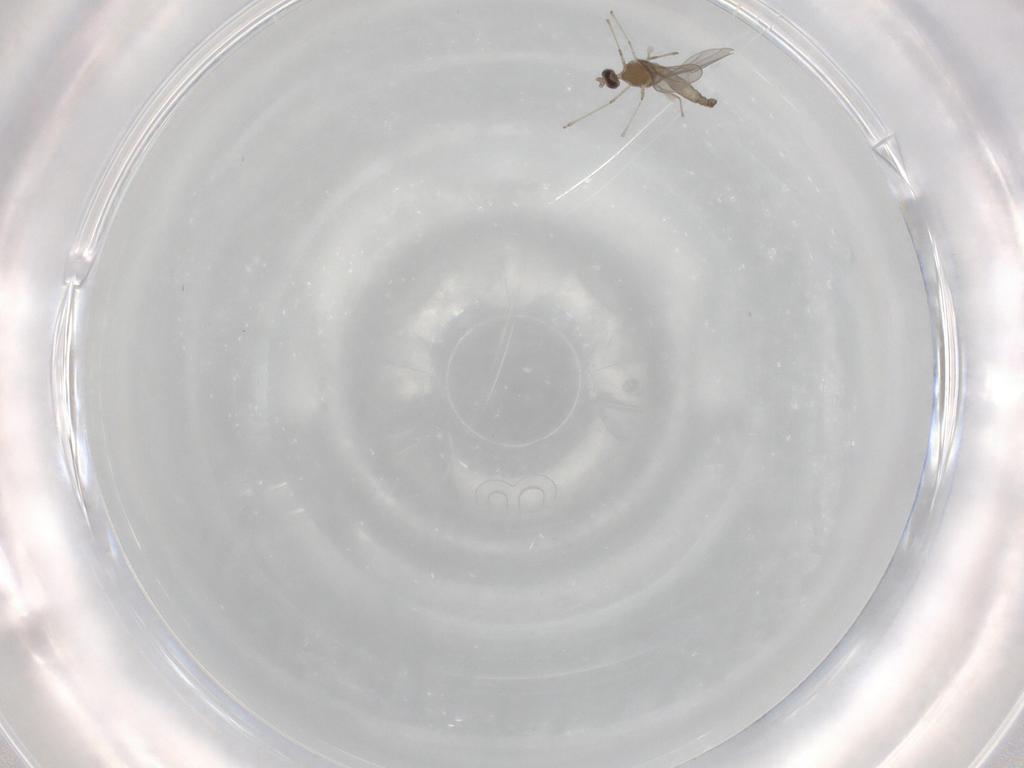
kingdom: Animalia
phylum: Arthropoda
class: Insecta
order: Diptera
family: Cecidomyiidae
